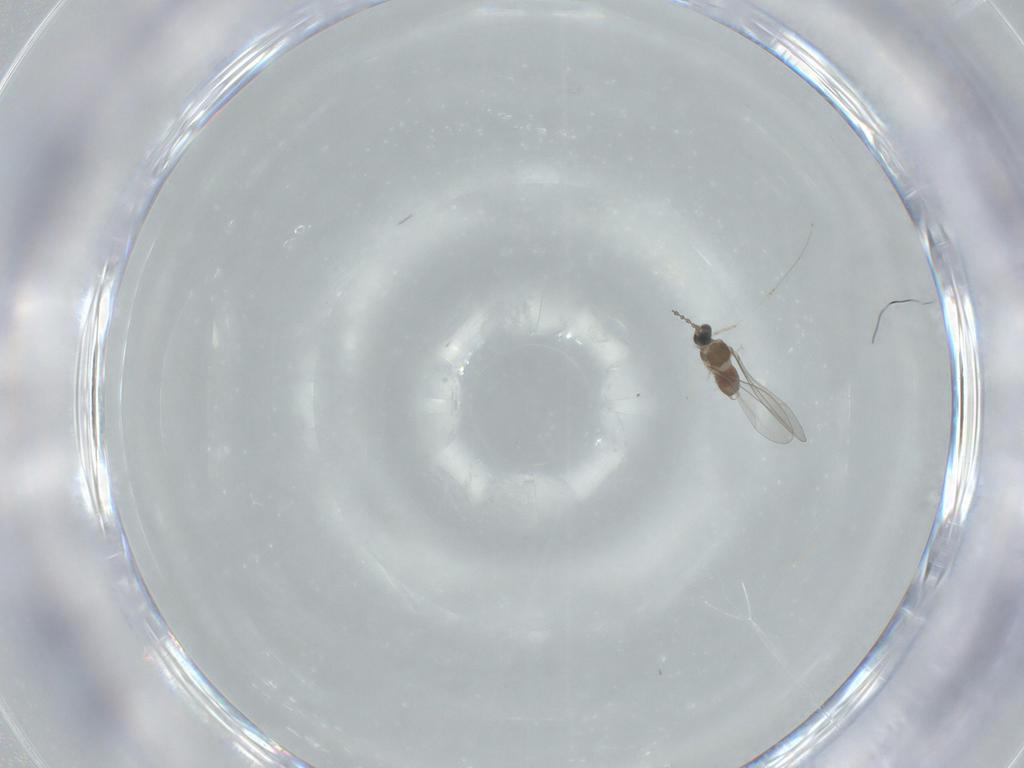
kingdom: Animalia
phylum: Arthropoda
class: Insecta
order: Diptera
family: Cecidomyiidae
